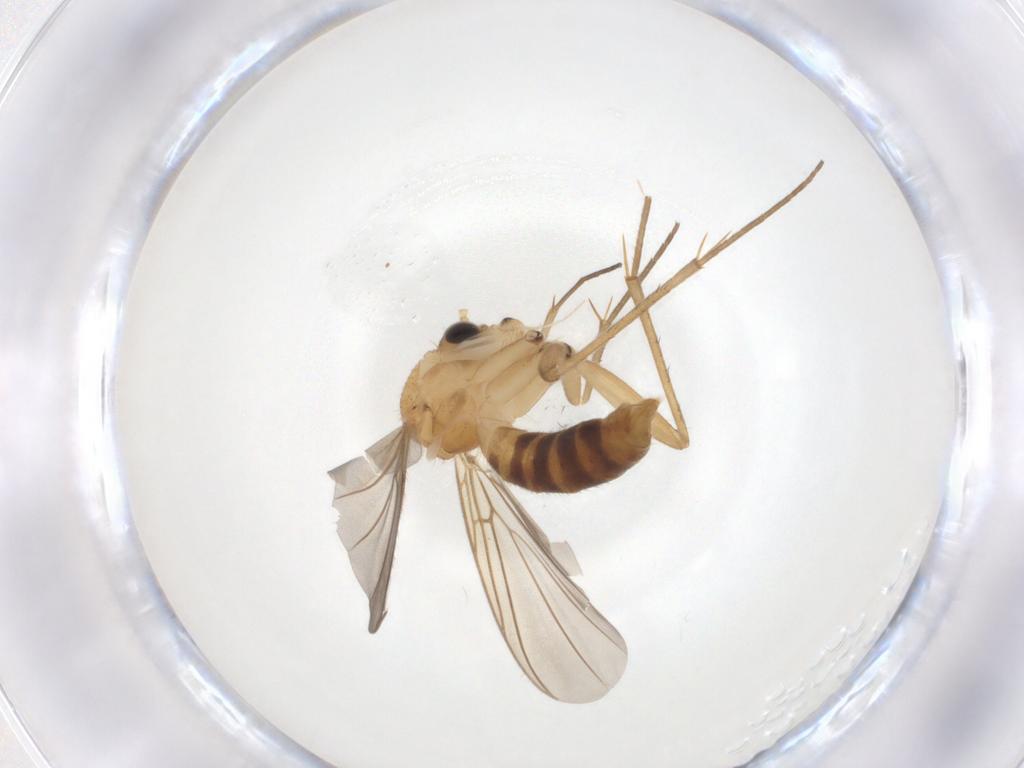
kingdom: Animalia
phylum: Arthropoda
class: Insecta
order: Diptera
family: Mycetophilidae
